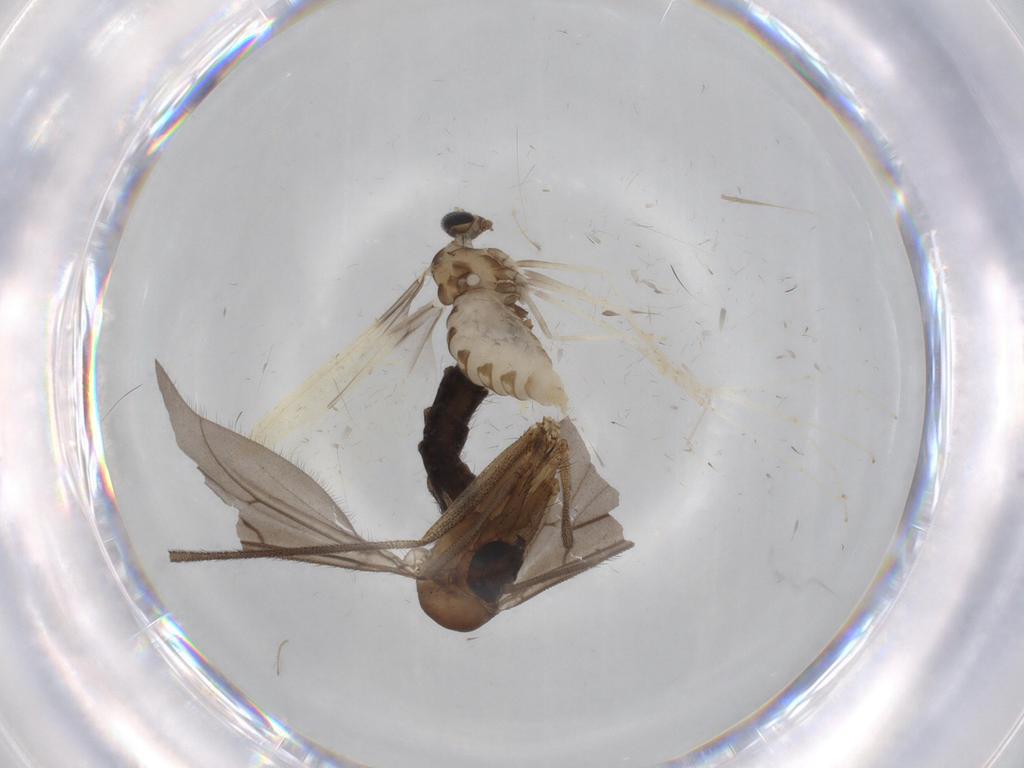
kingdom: Animalia
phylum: Arthropoda
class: Insecta
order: Diptera
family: Ditomyiidae
